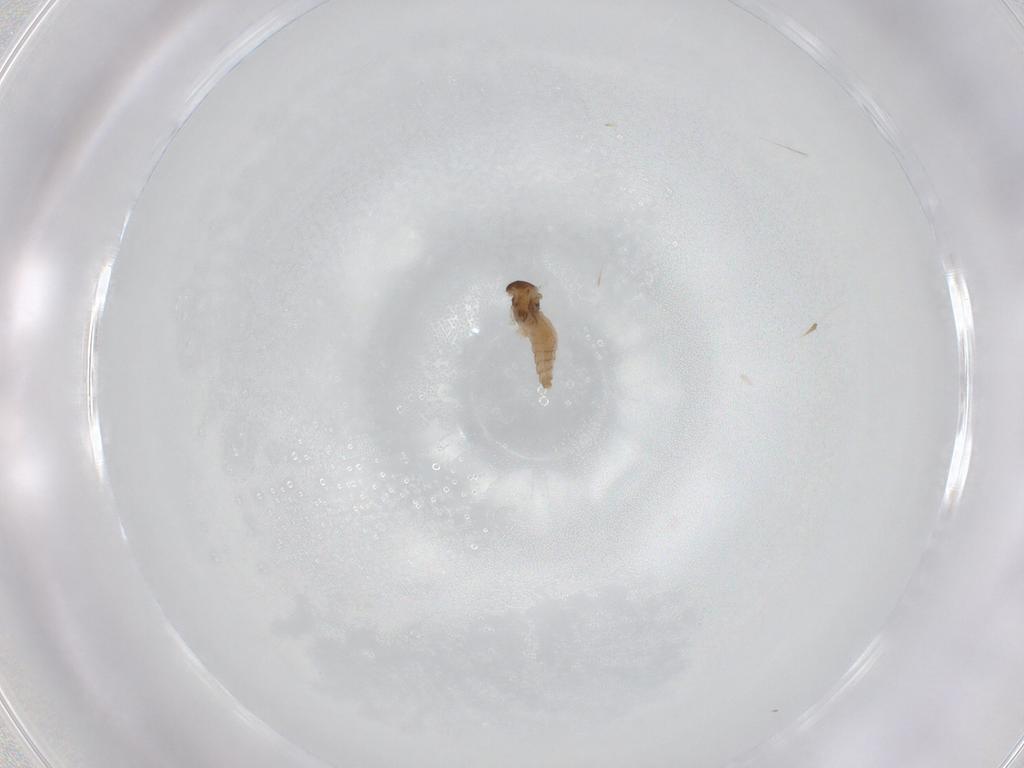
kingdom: Animalia
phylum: Arthropoda
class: Insecta
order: Diptera
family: Cecidomyiidae
